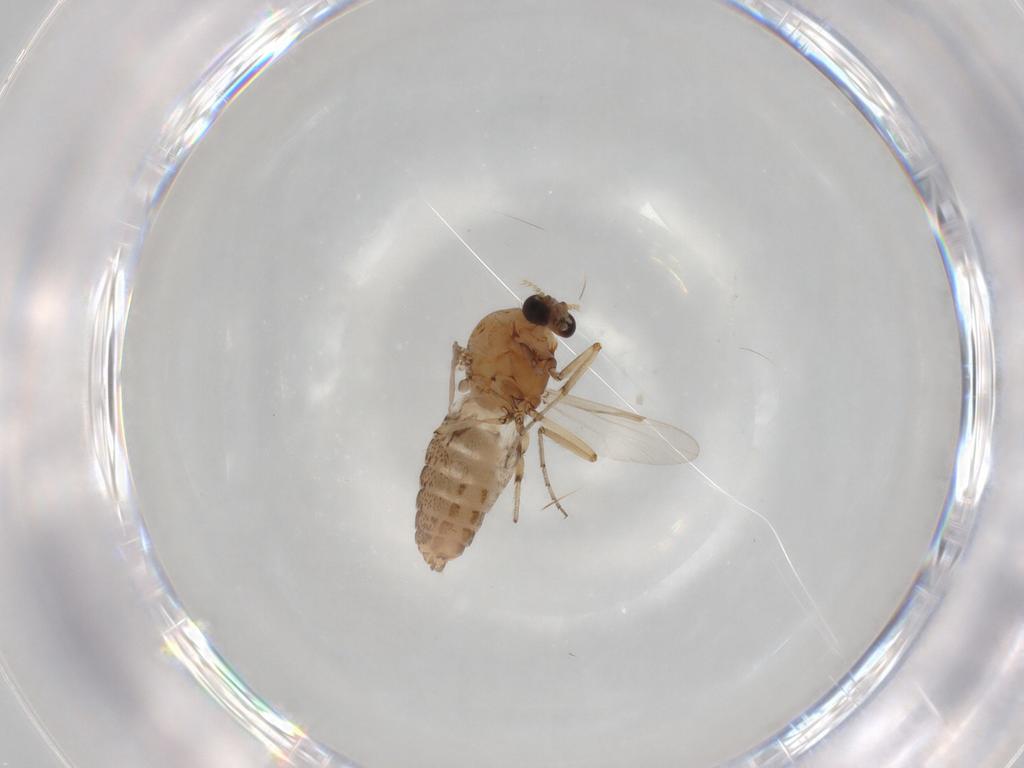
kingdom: Animalia
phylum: Arthropoda
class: Insecta
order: Diptera
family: Ceratopogonidae
